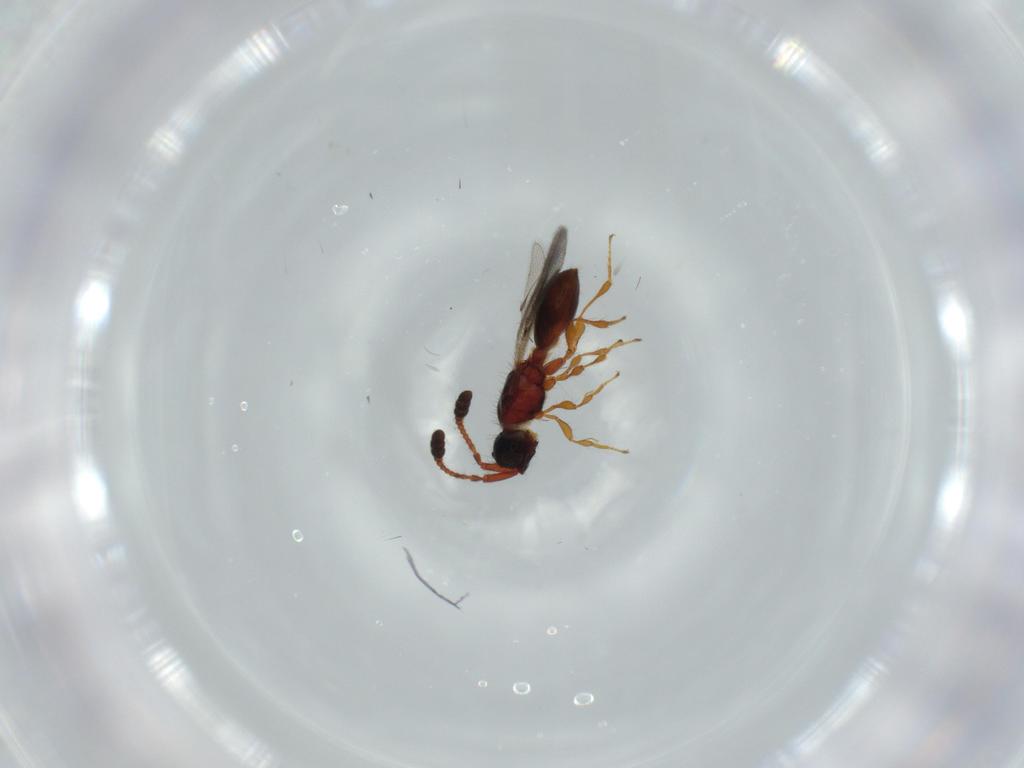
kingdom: Animalia
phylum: Arthropoda
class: Insecta
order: Hymenoptera
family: Diapriidae
